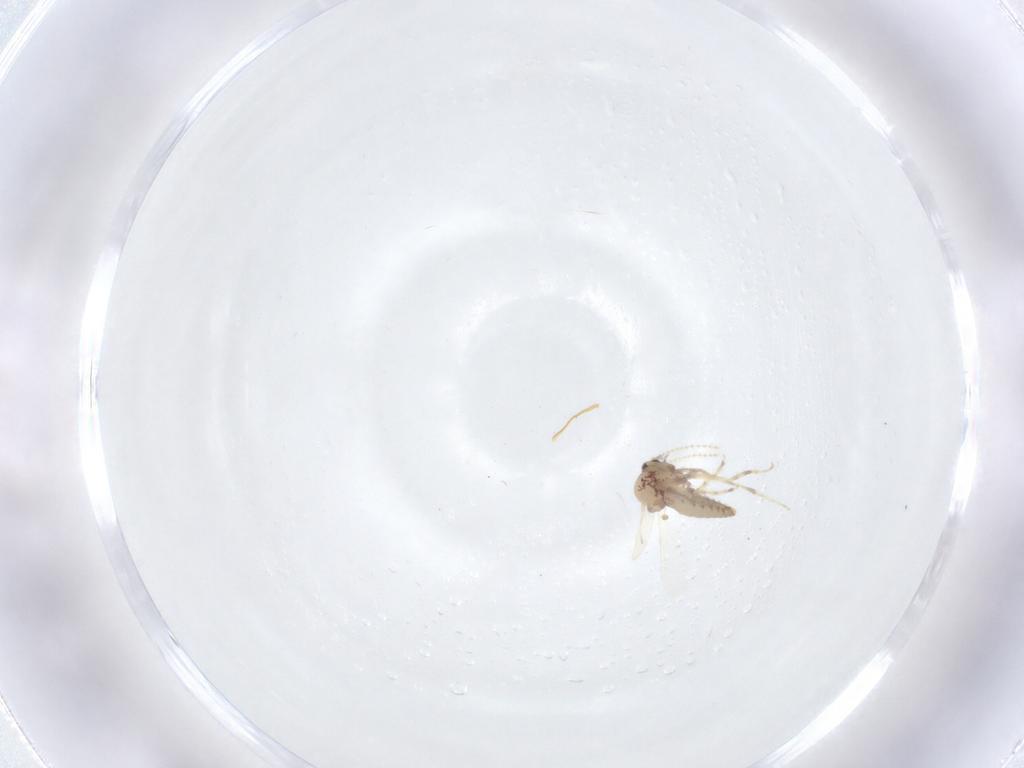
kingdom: Animalia
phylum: Arthropoda
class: Insecta
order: Diptera
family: Ceratopogonidae
